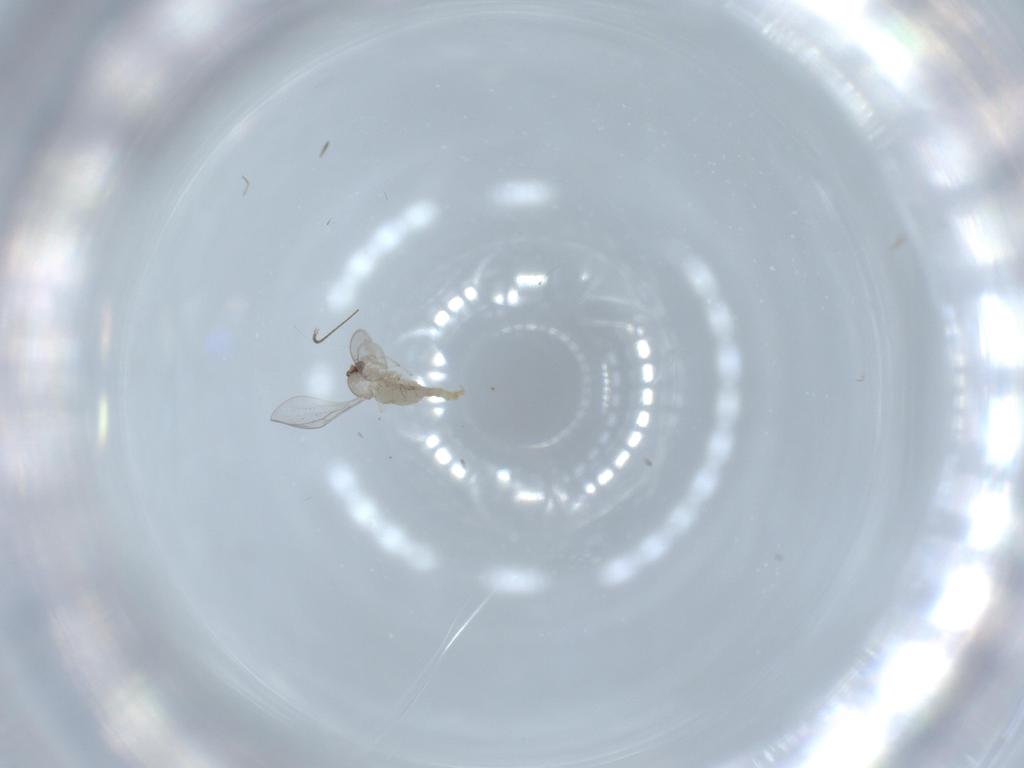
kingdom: Animalia
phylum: Arthropoda
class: Insecta
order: Diptera
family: Cecidomyiidae
